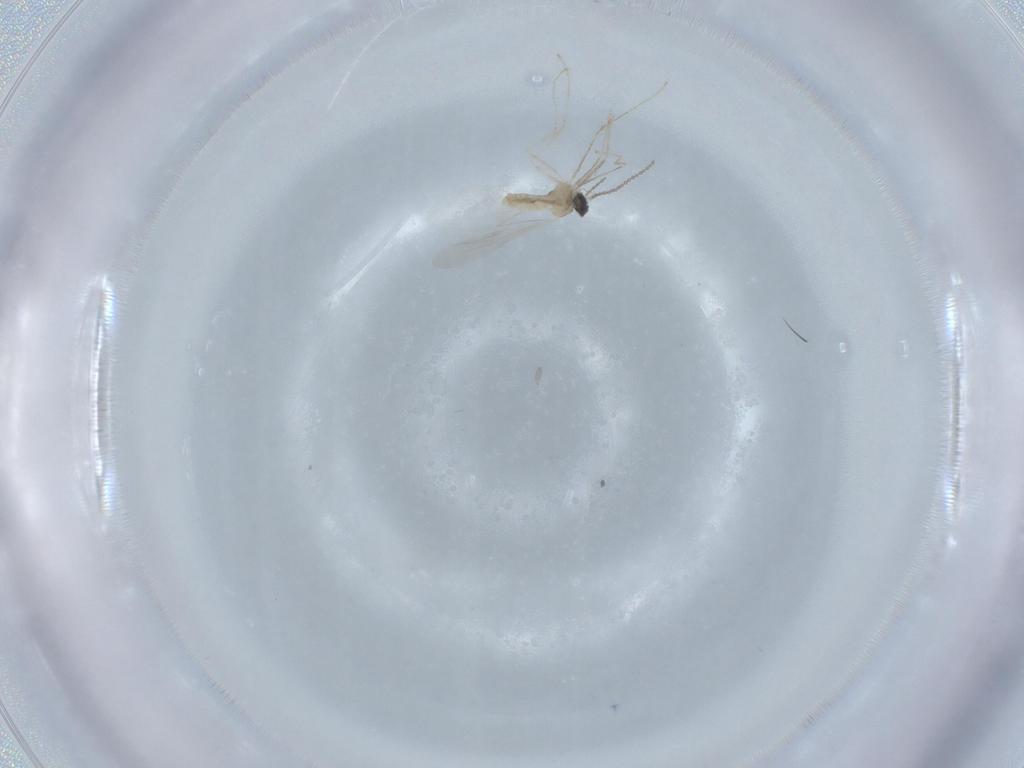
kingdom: Animalia
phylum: Arthropoda
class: Insecta
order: Diptera
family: Cecidomyiidae
